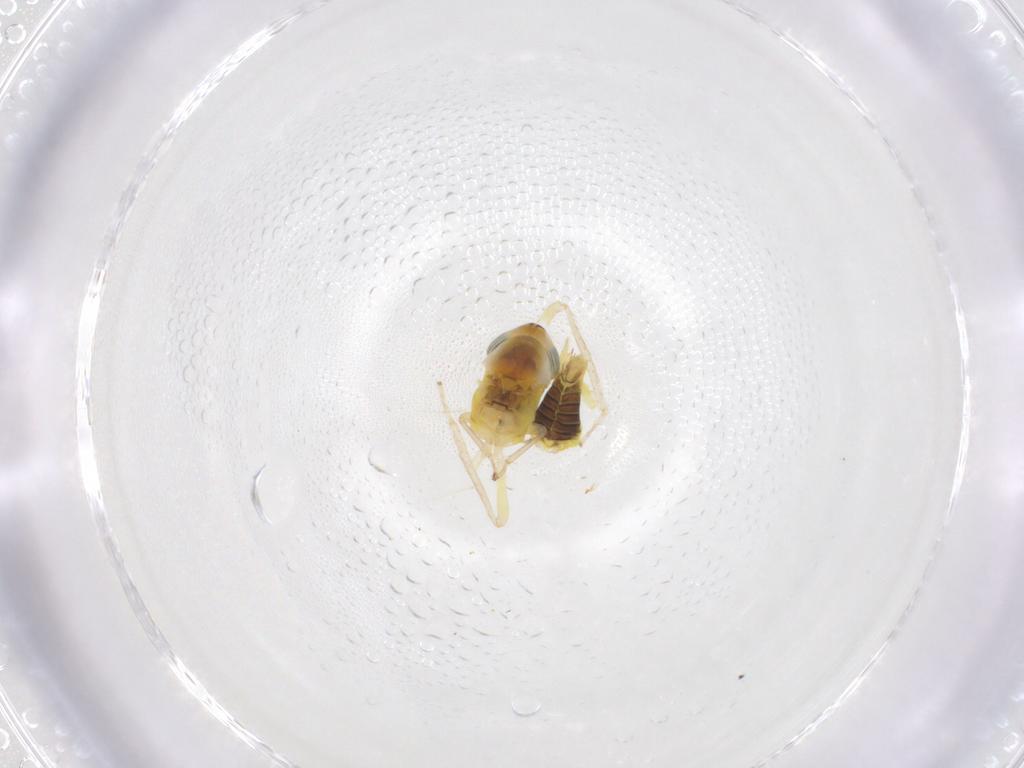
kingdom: Animalia
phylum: Arthropoda
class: Insecta
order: Hemiptera
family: Cicadellidae
